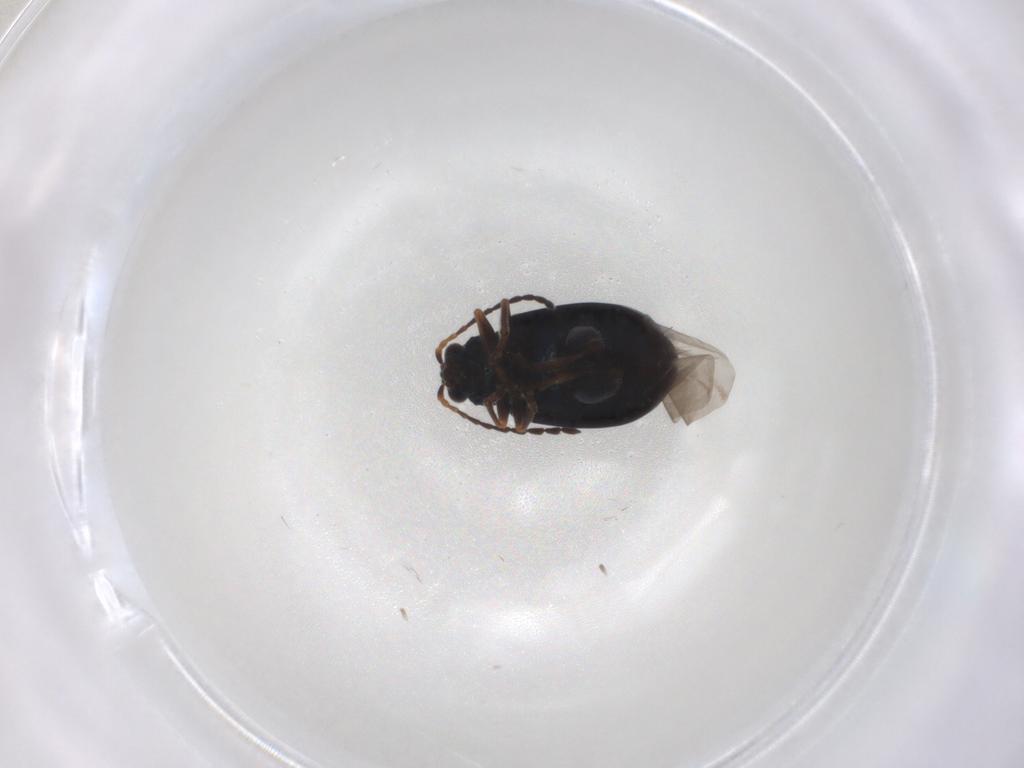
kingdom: Animalia
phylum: Arthropoda
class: Insecta
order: Coleoptera
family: Chrysomelidae
